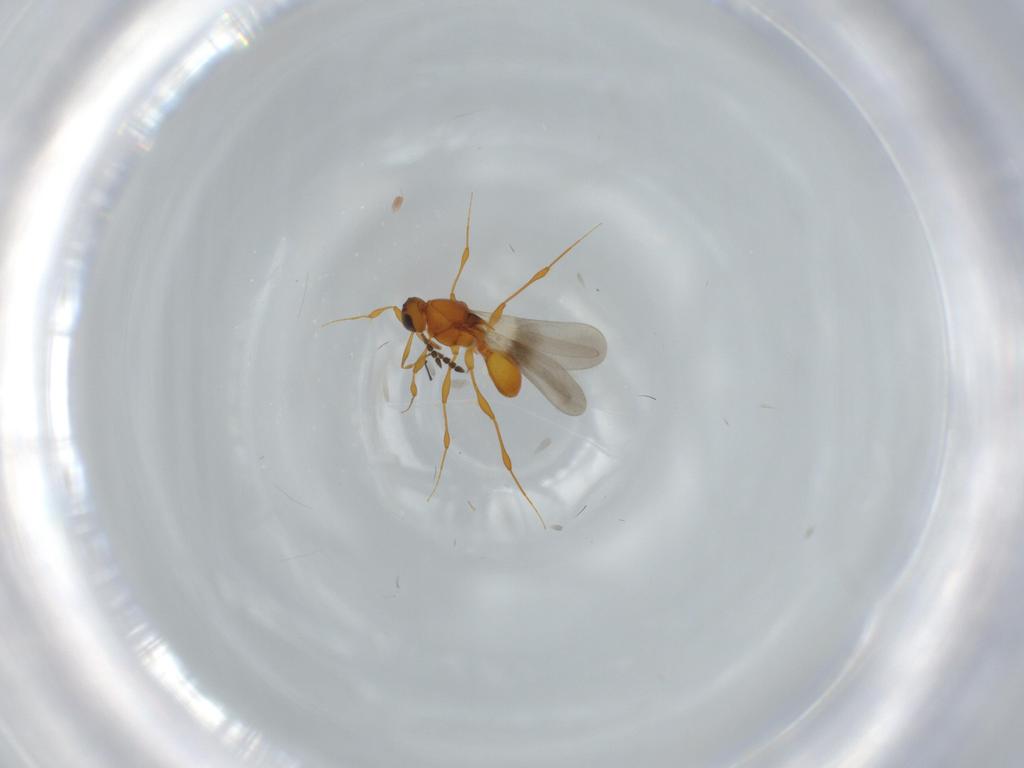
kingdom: Animalia
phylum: Arthropoda
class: Insecta
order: Hymenoptera
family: Platygastridae
